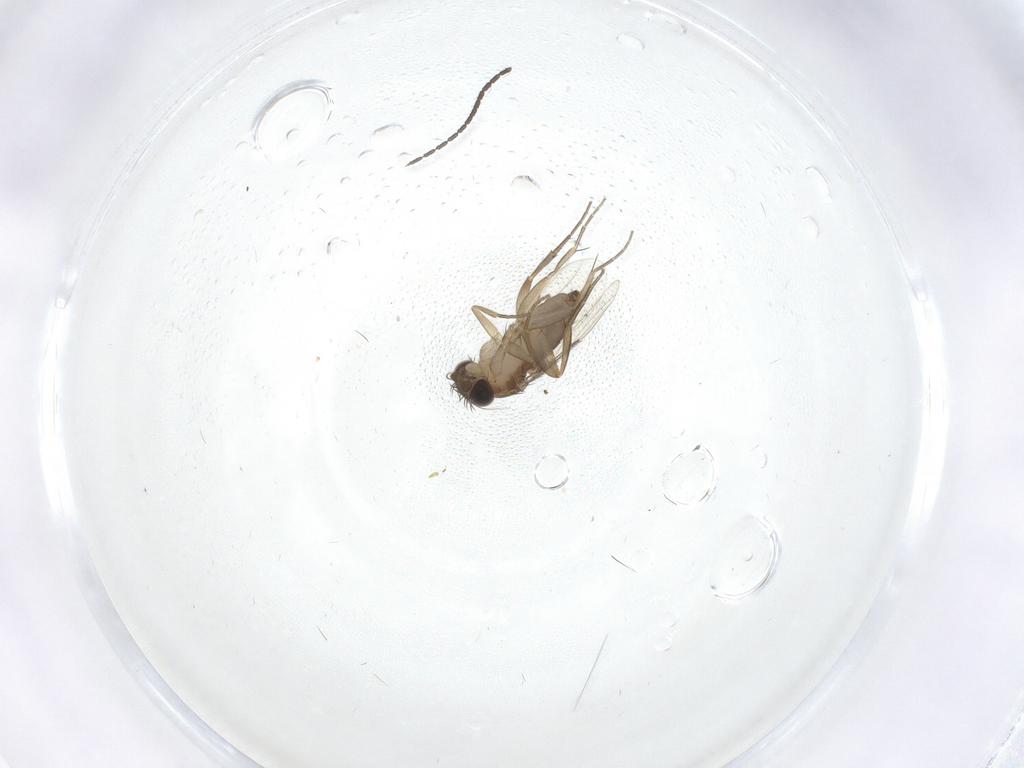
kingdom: Animalia
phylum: Arthropoda
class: Insecta
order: Diptera
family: Phoridae
